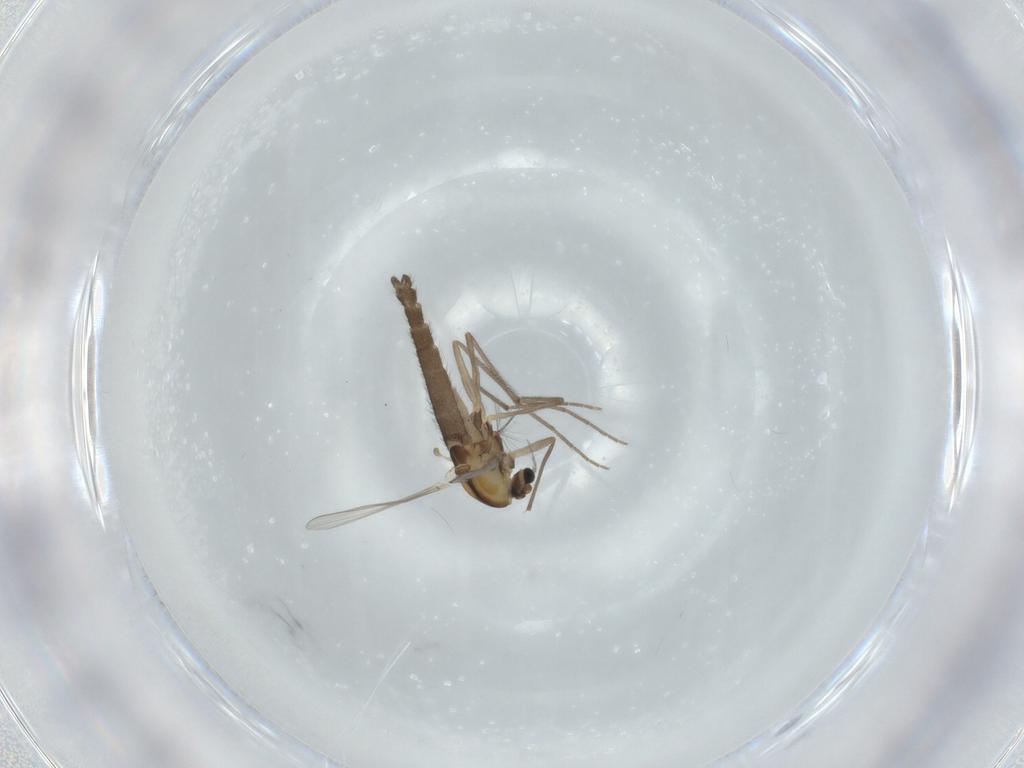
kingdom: Animalia
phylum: Arthropoda
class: Insecta
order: Diptera
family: Chironomidae
